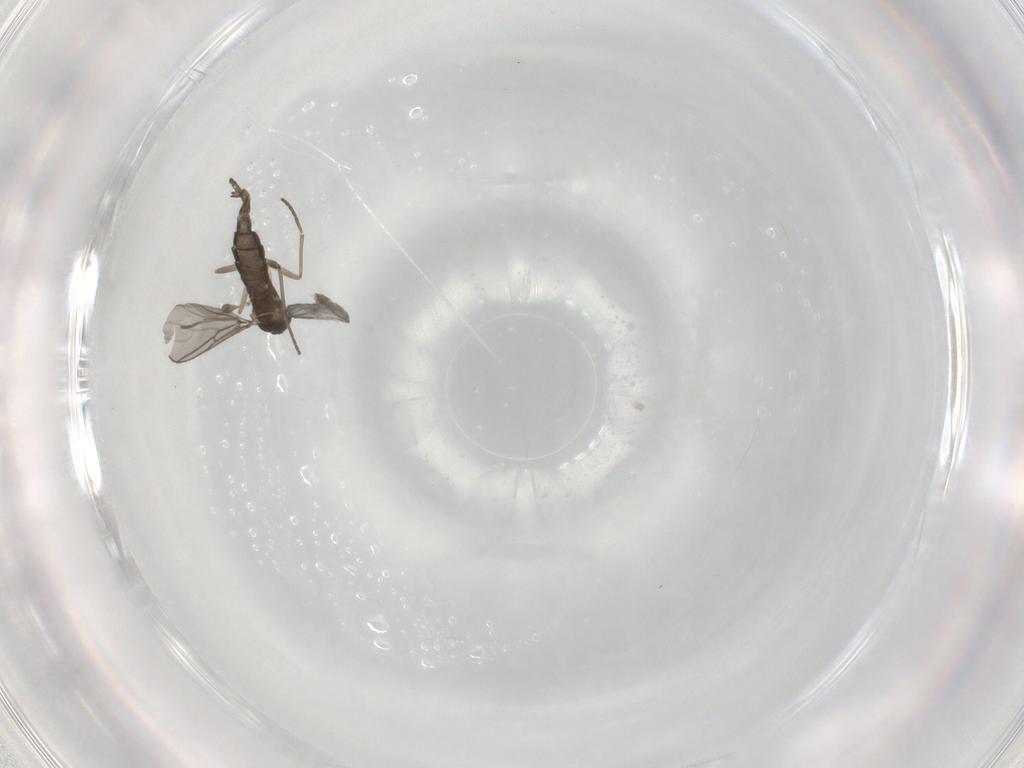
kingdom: Animalia
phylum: Arthropoda
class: Insecta
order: Diptera
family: Sciaridae
